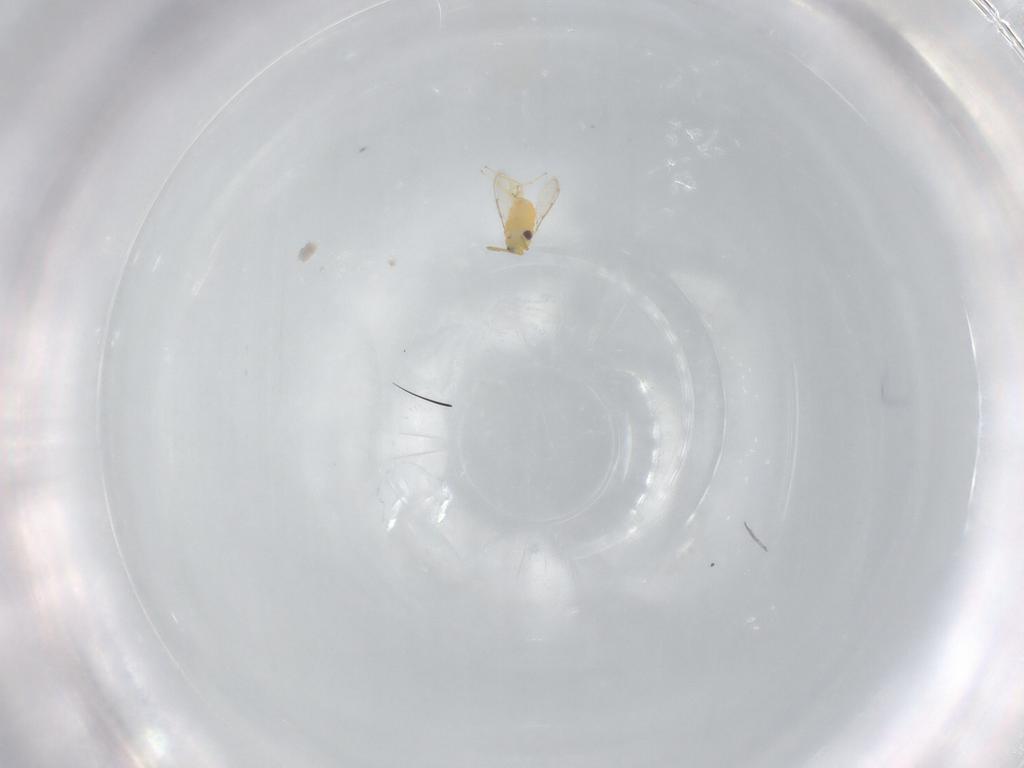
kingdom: Animalia
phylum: Arthropoda
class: Insecta
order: Hymenoptera
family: Aphelinidae
